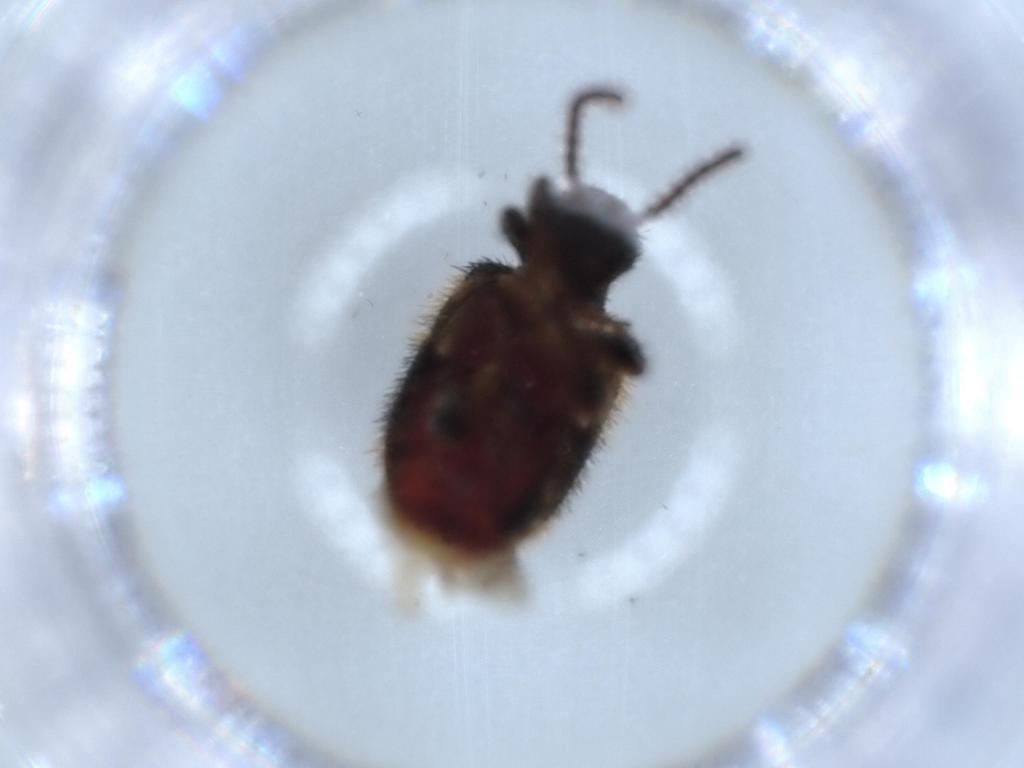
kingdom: Animalia
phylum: Arthropoda
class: Insecta
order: Coleoptera
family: Ptinidae
